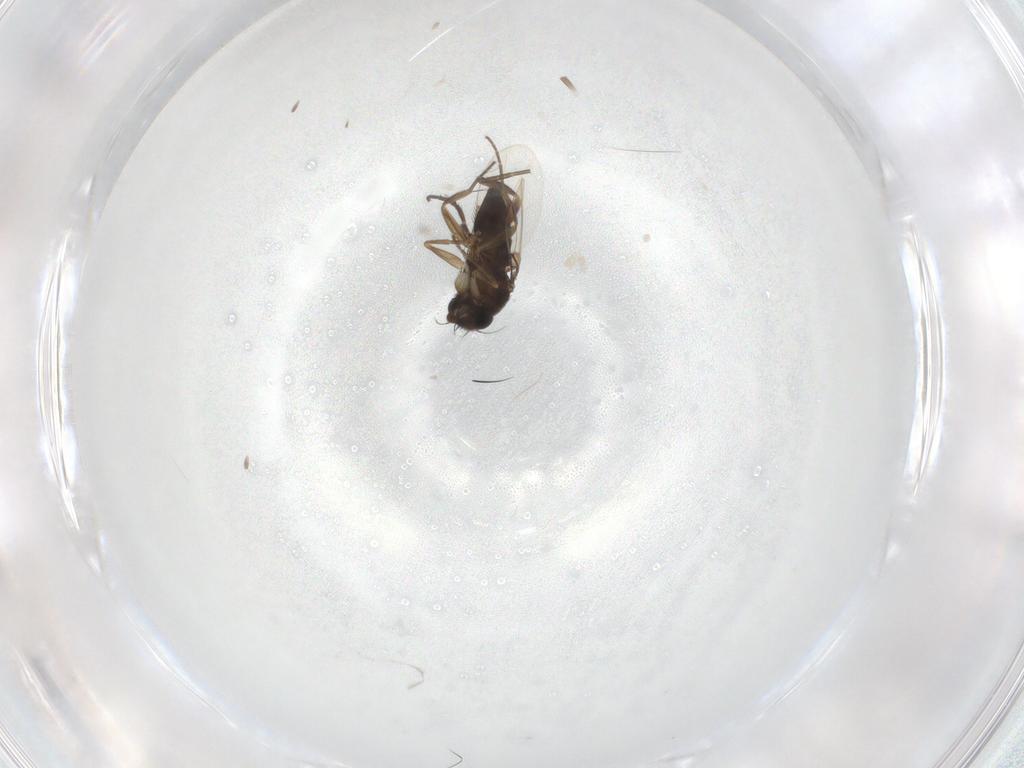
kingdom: Animalia
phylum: Arthropoda
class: Insecta
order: Diptera
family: Phoridae
